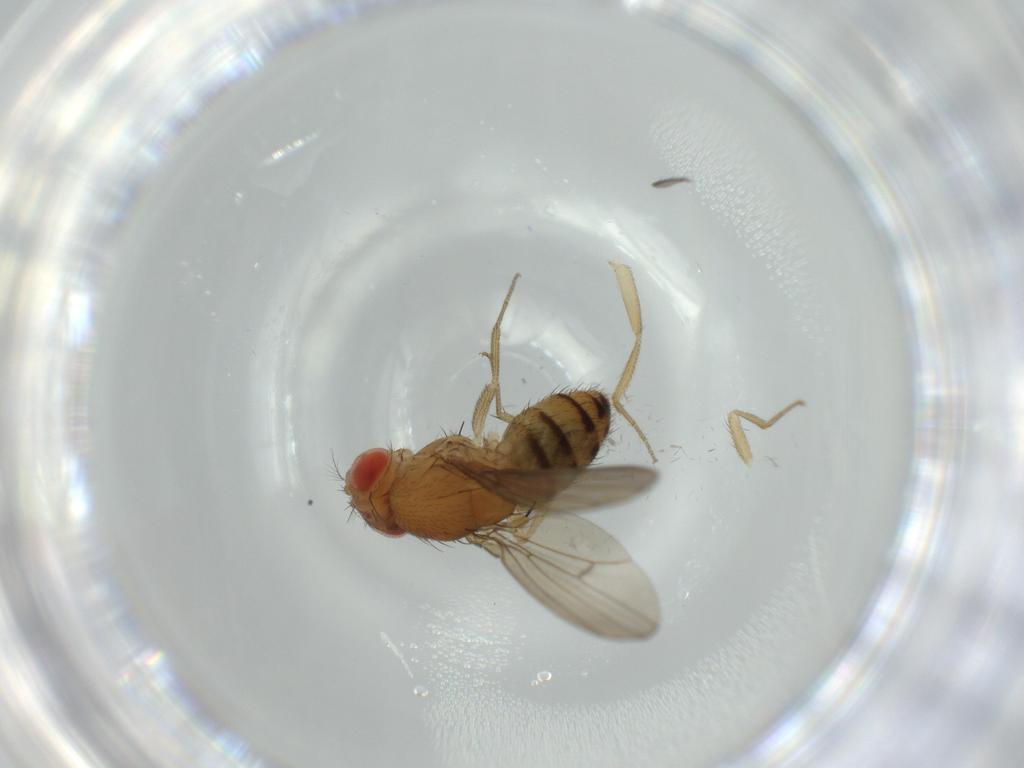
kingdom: Animalia
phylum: Arthropoda
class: Insecta
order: Diptera
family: Drosophilidae
